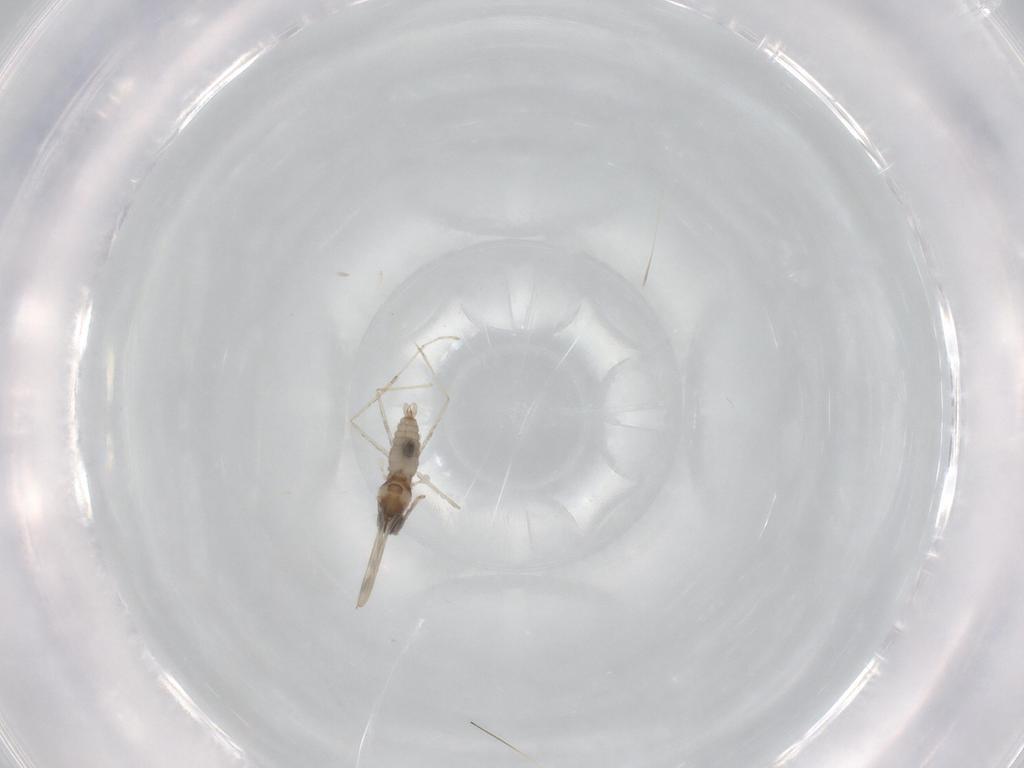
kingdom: Animalia
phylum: Arthropoda
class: Insecta
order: Diptera
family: Cecidomyiidae
